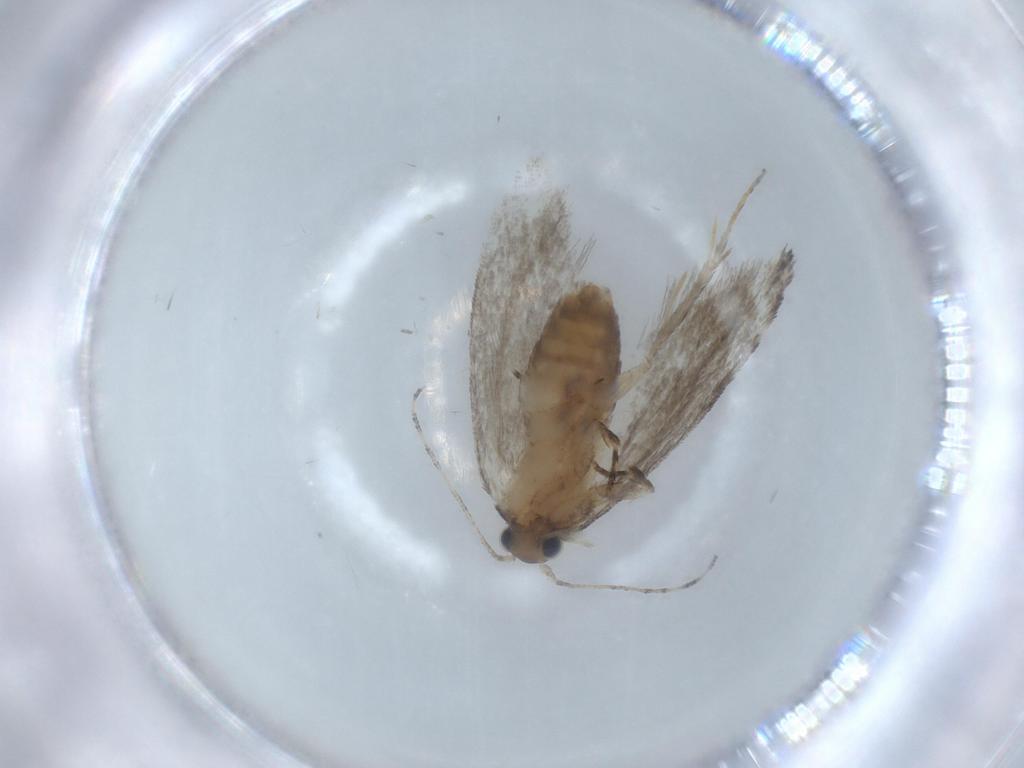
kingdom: Animalia
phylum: Arthropoda
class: Insecta
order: Lepidoptera
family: Tineidae
